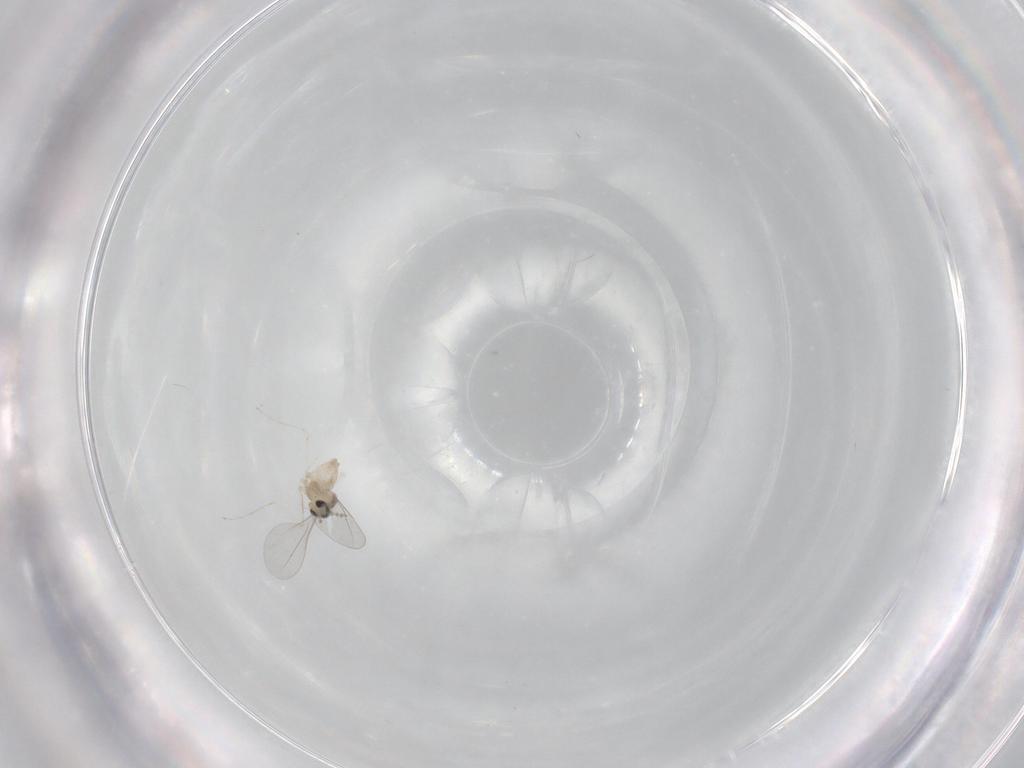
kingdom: Animalia
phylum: Arthropoda
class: Insecta
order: Diptera
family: Cecidomyiidae
